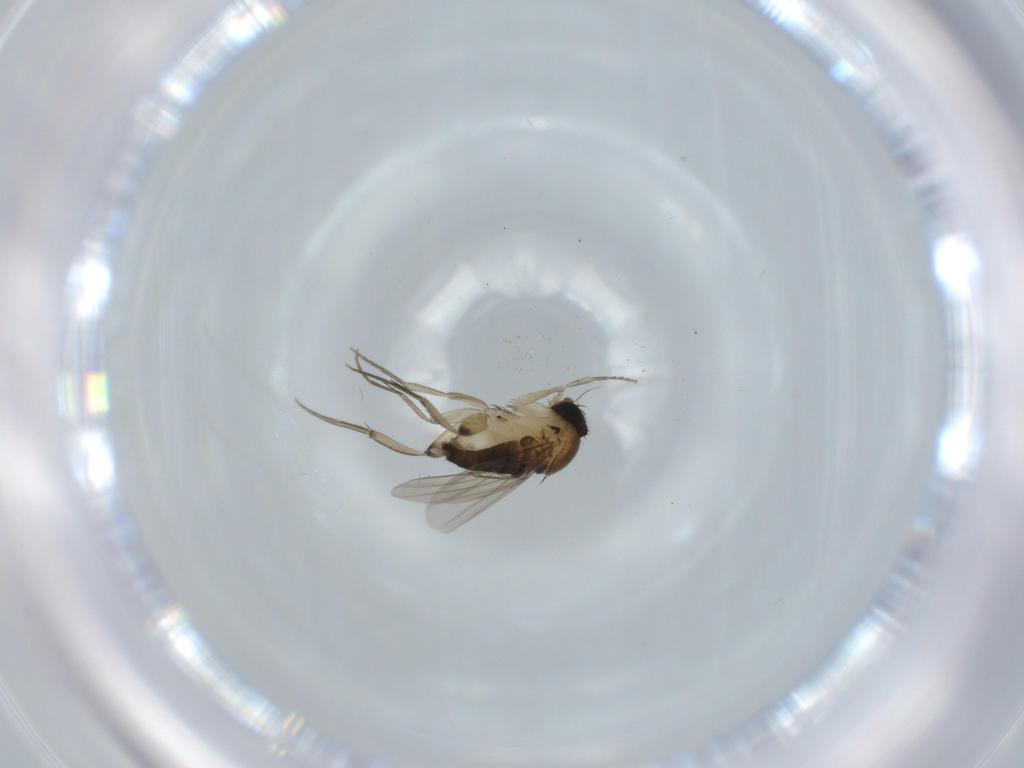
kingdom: Animalia
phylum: Arthropoda
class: Insecta
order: Diptera
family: Phoridae
